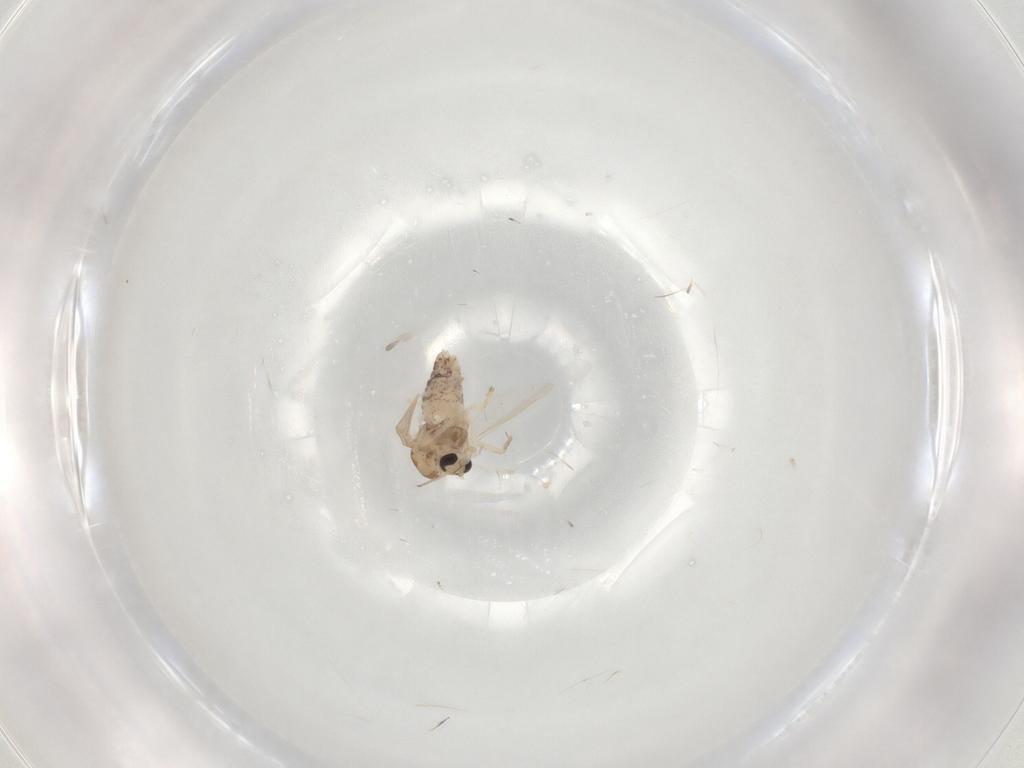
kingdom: Animalia
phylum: Arthropoda
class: Insecta
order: Diptera
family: Chironomidae
